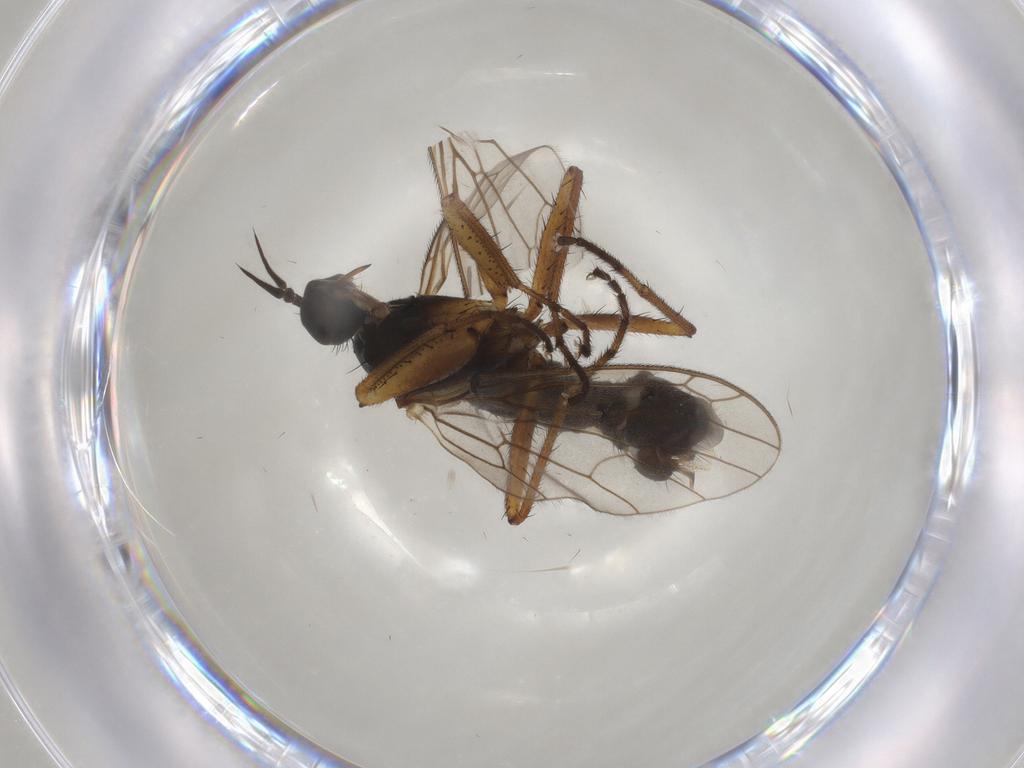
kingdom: Animalia
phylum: Arthropoda
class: Insecta
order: Diptera
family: Empididae
